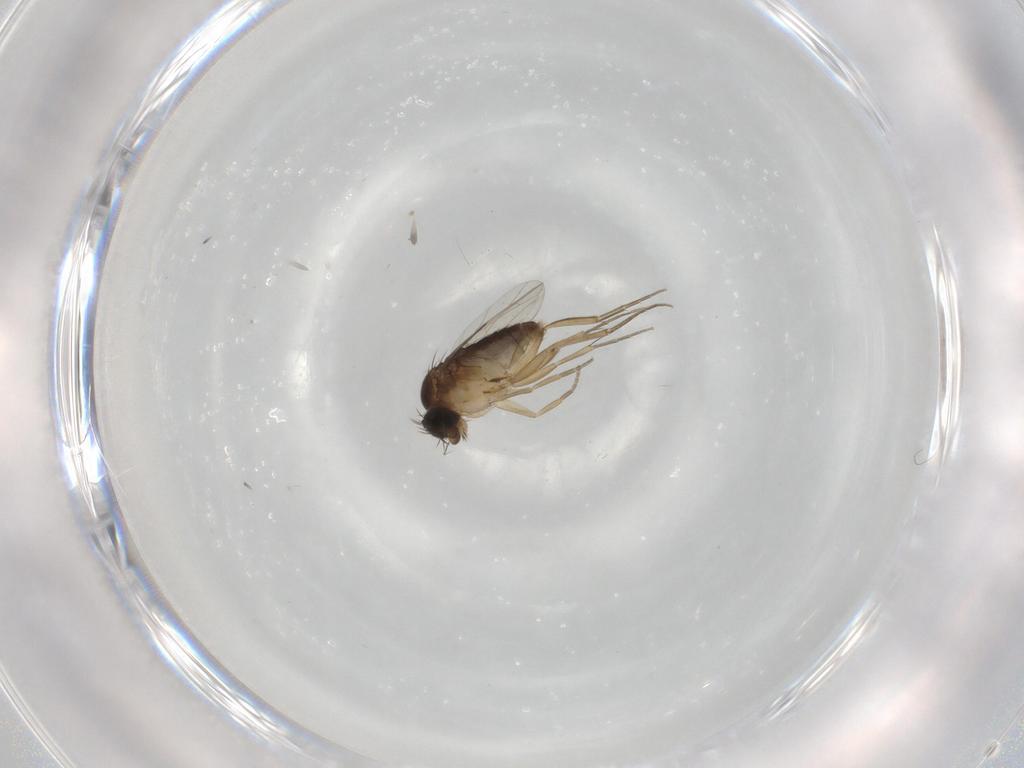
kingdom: Animalia
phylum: Arthropoda
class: Insecta
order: Diptera
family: Phoridae
